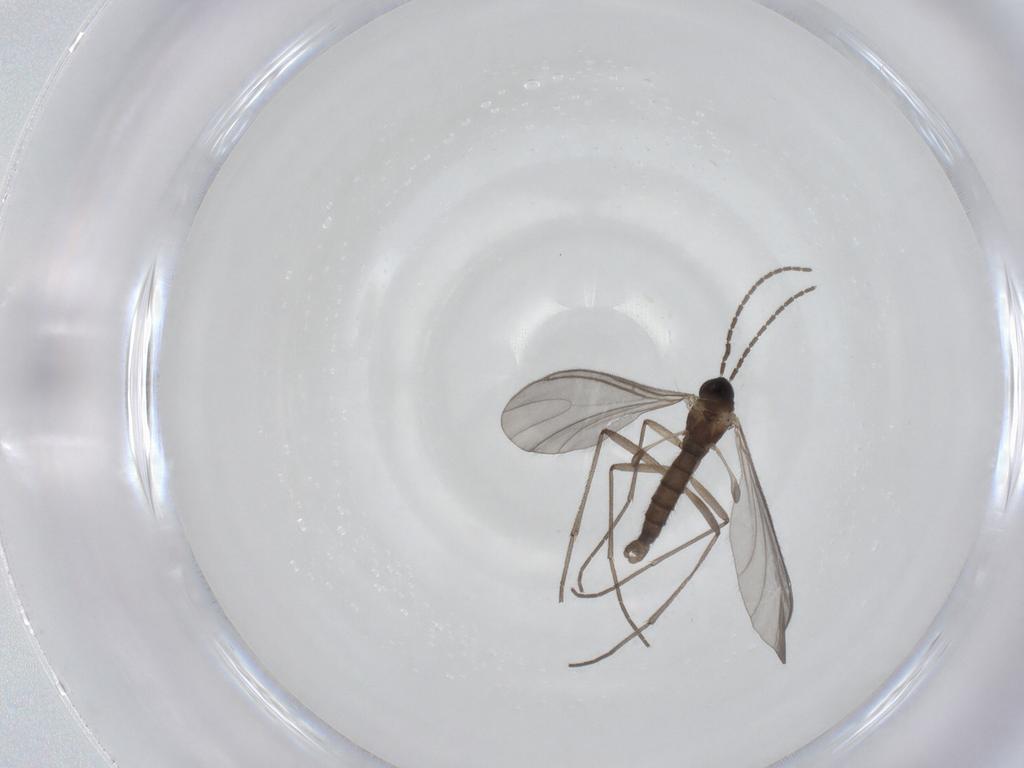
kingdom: Animalia
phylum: Arthropoda
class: Insecta
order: Diptera
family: Sciaridae
